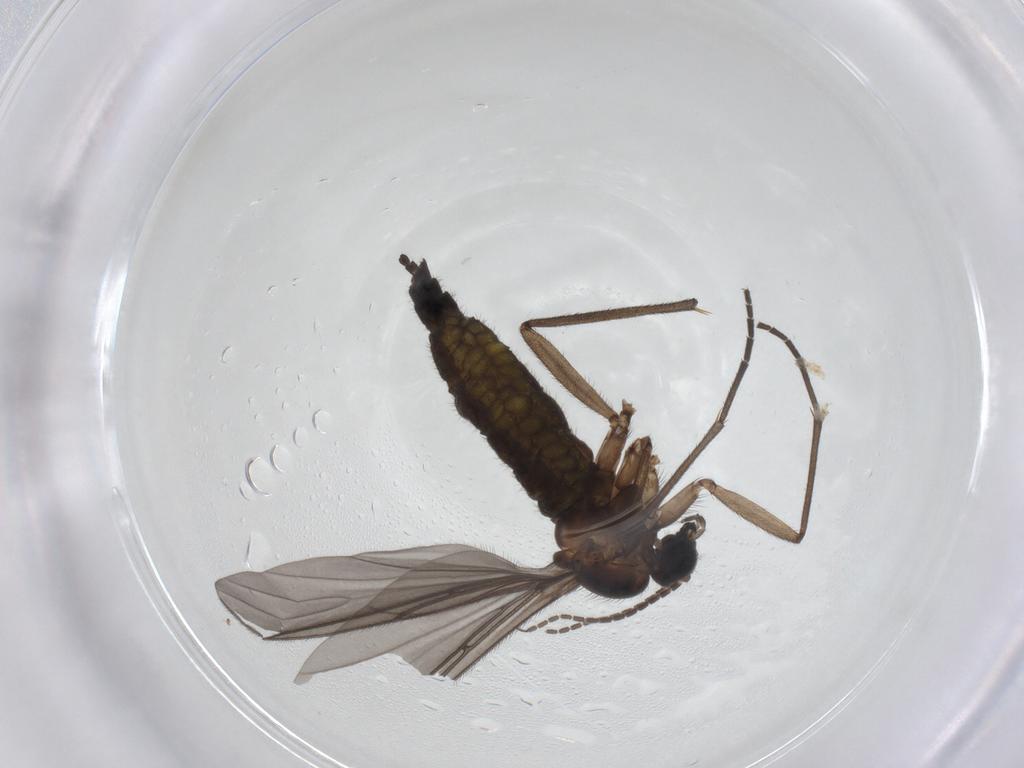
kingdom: Animalia
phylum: Arthropoda
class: Insecta
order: Diptera
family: Sciaridae
